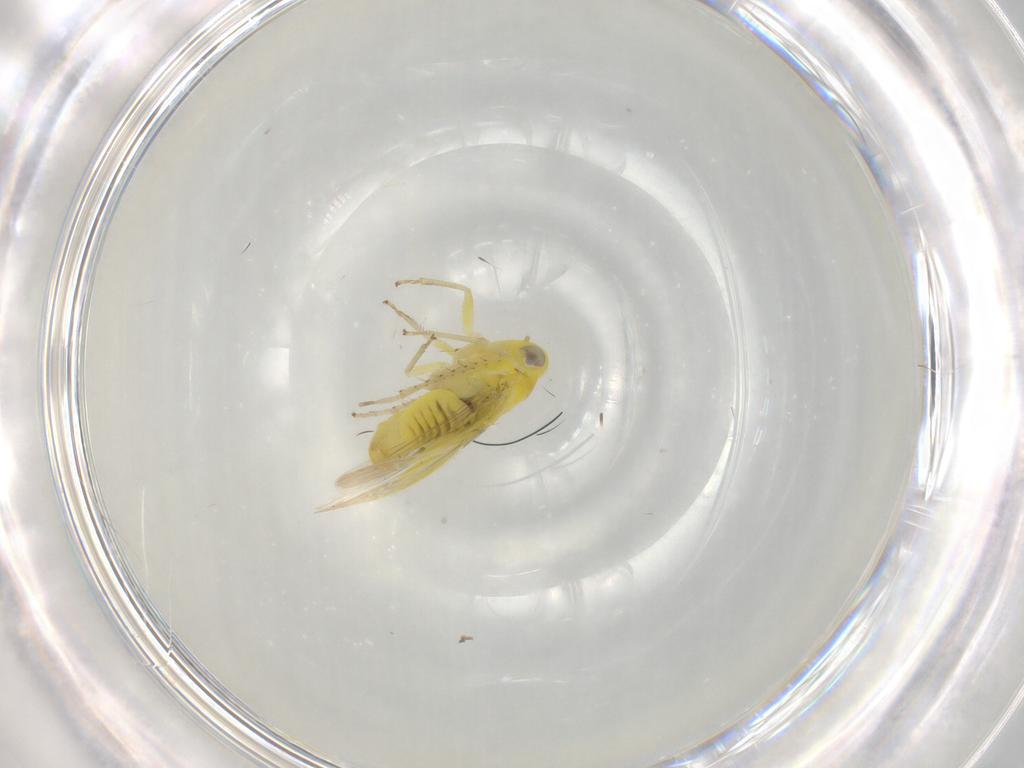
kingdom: Animalia
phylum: Arthropoda
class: Insecta
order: Hemiptera
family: Cicadellidae
